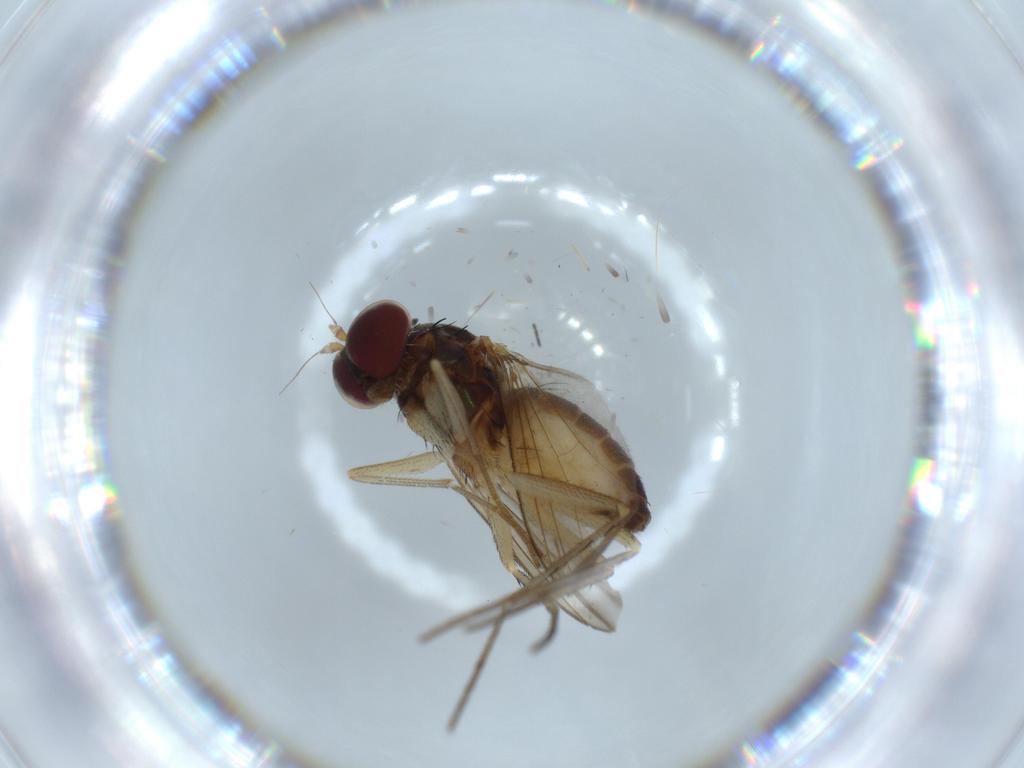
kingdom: Animalia
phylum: Arthropoda
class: Insecta
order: Diptera
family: Dolichopodidae
